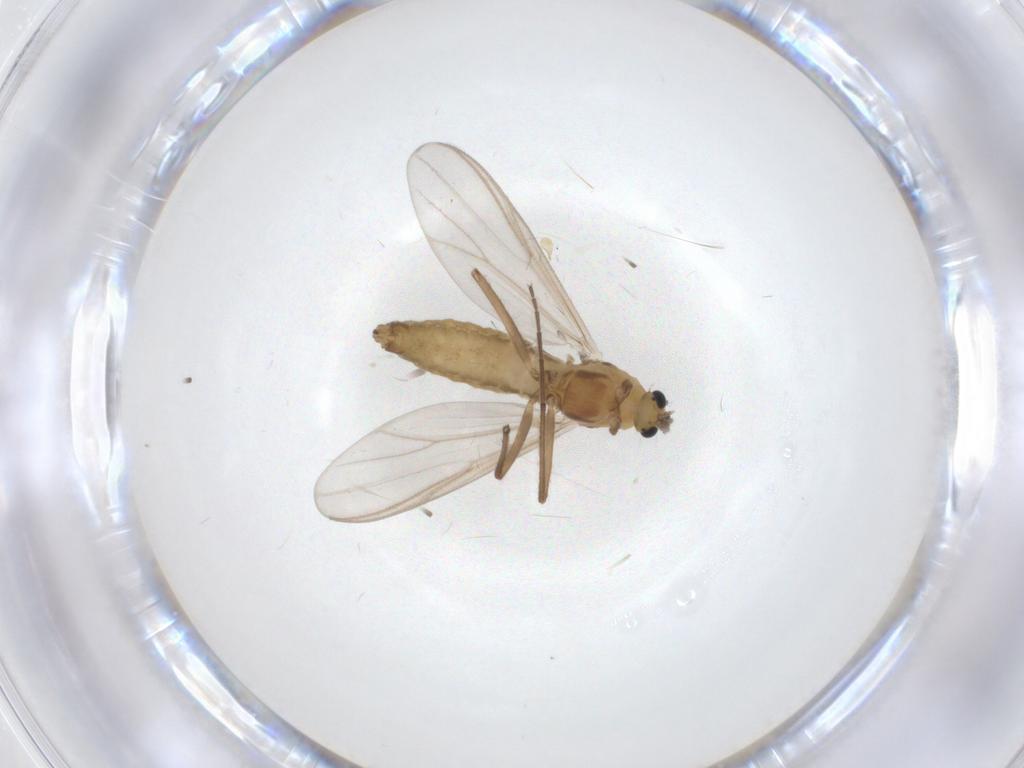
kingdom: Animalia
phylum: Arthropoda
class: Insecta
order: Diptera
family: Chironomidae
